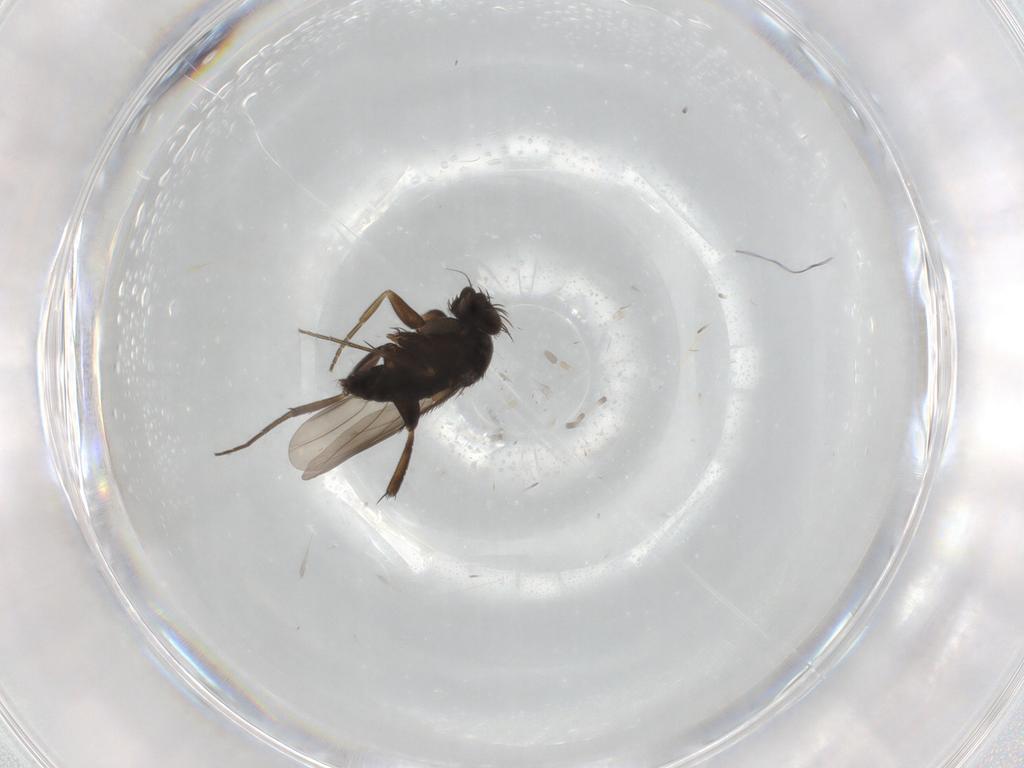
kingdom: Animalia
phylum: Arthropoda
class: Insecta
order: Diptera
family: Phoridae
